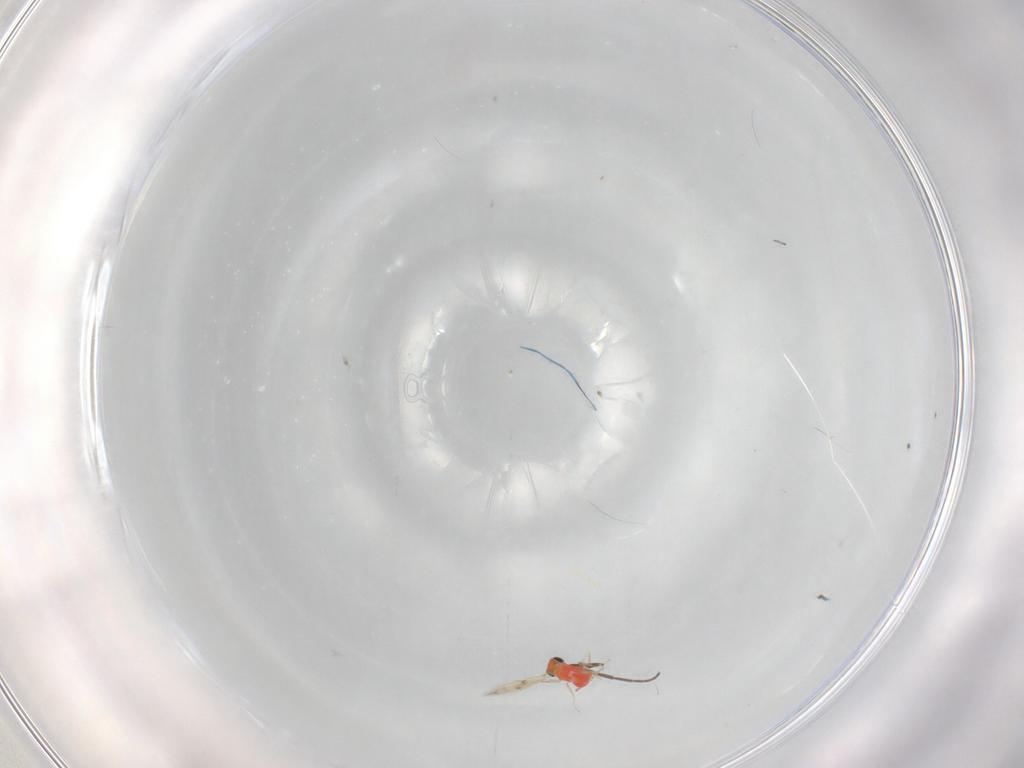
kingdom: Animalia
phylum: Arthropoda
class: Insecta
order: Hymenoptera
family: Trichogrammatidae
